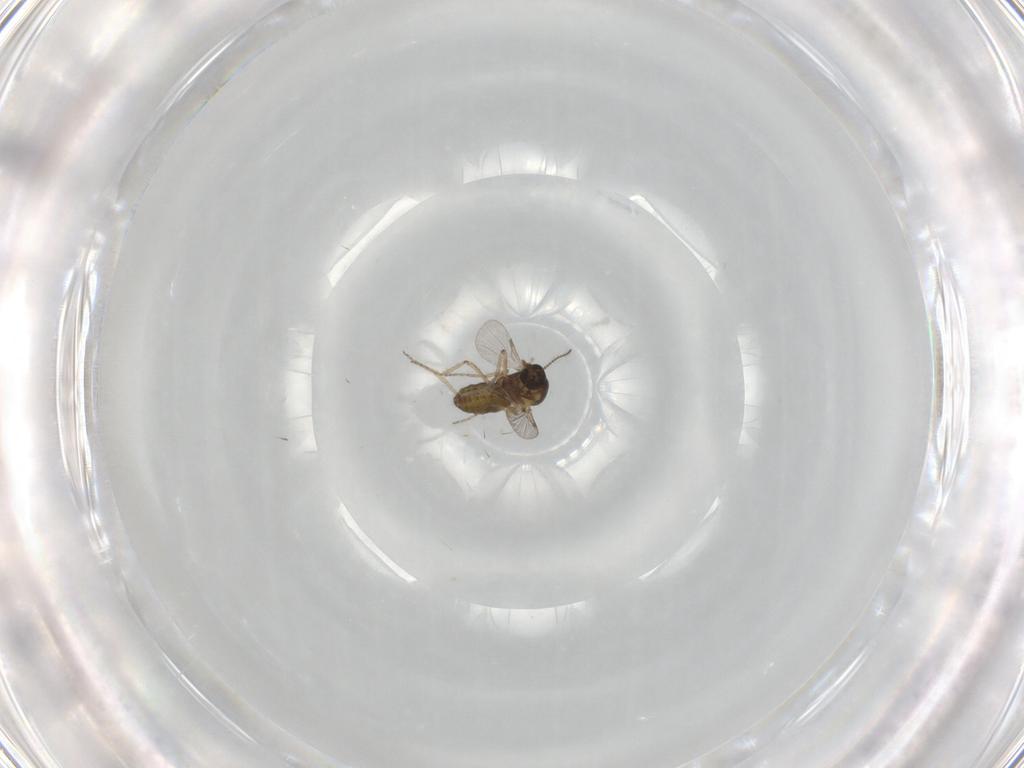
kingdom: Animalia
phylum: Arthropoda
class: Insecta
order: Diptera
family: Ceratopogonidae
